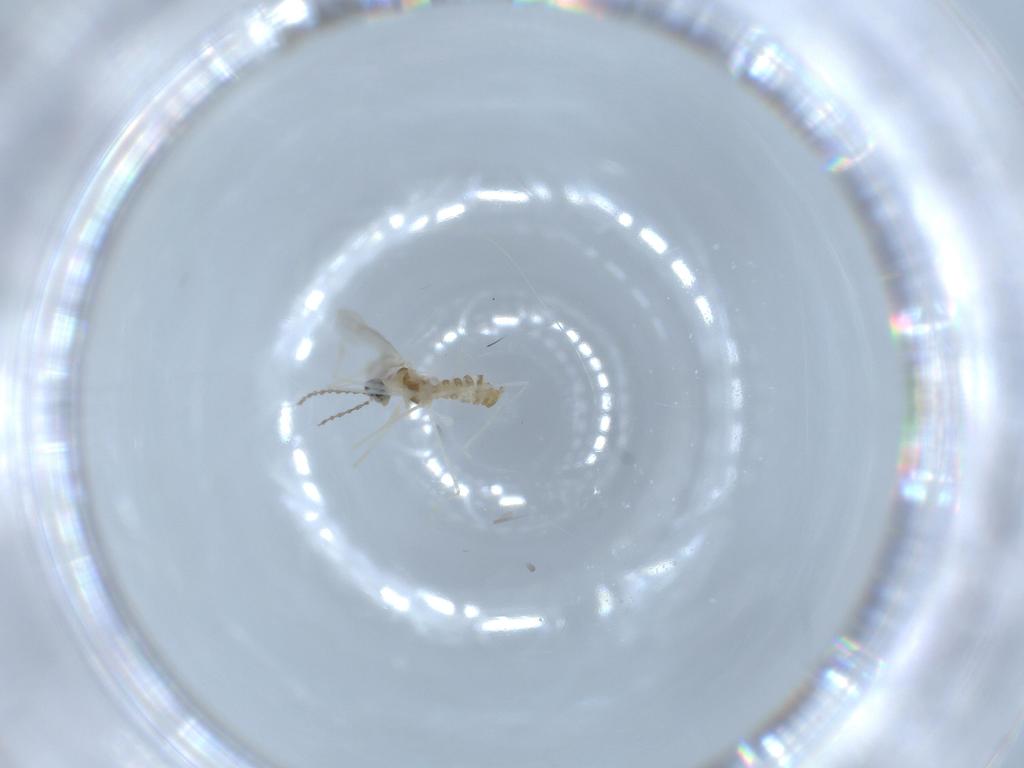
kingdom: Animalia
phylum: Arthropoda
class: Insecta
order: Diptera
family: Cecidomyiidae
